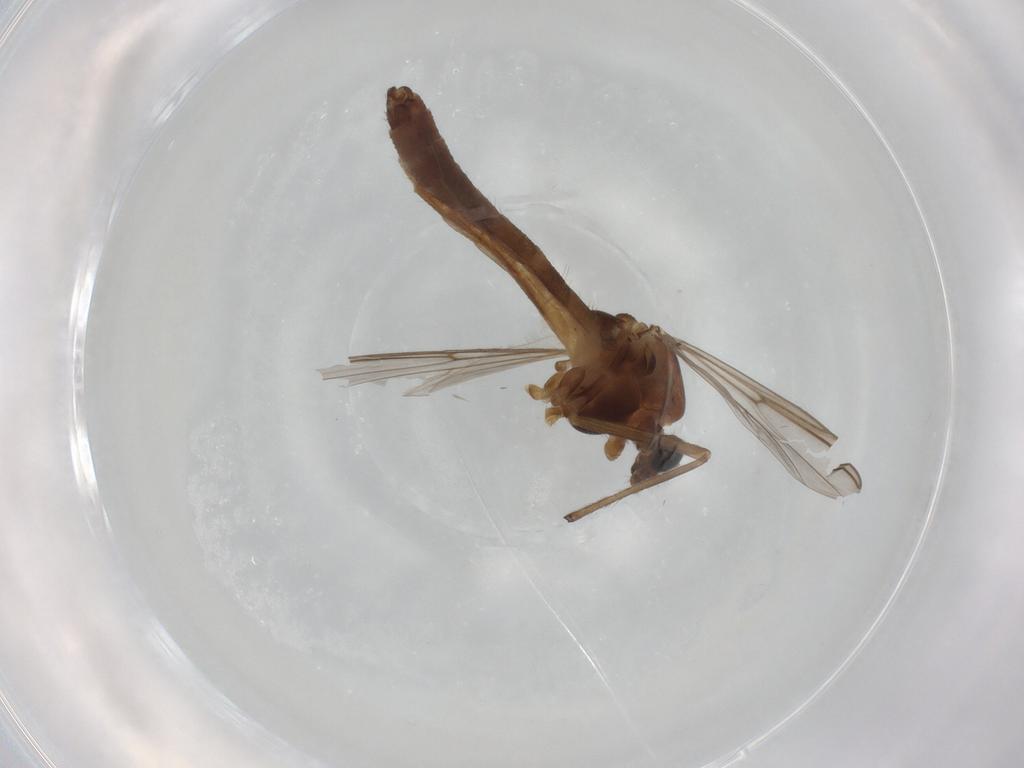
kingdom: Animalia
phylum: Arthropoda
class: Insecta
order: Diptera
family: Chironomidae
